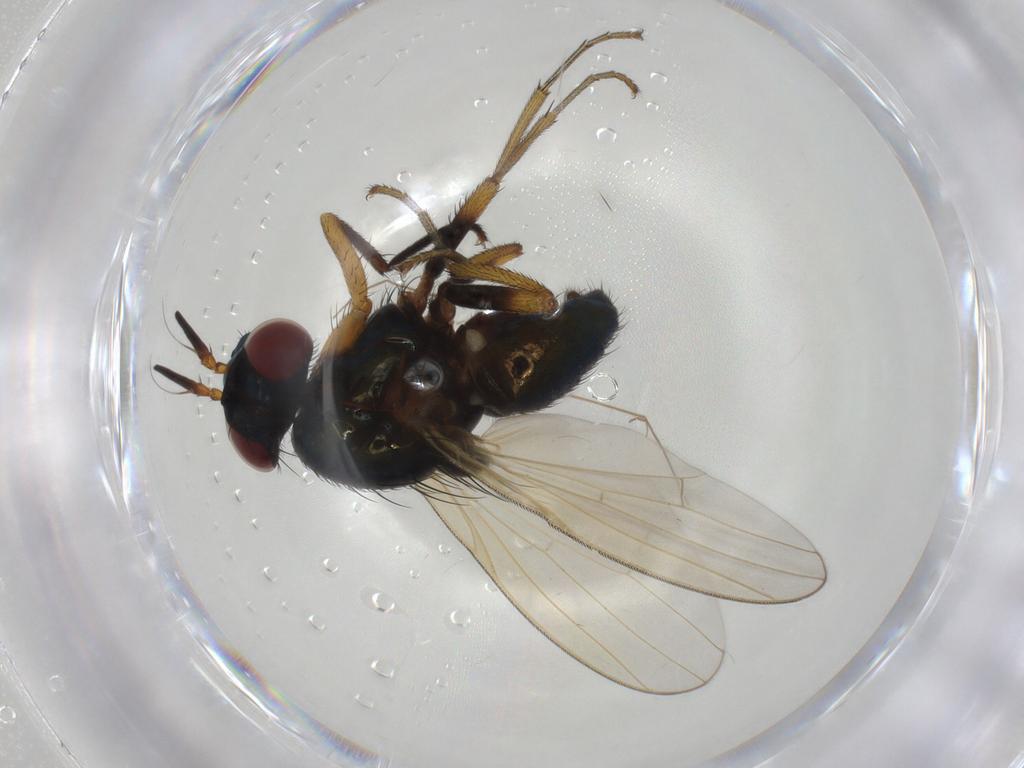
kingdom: Animalia
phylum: Arthropoda
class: Insecta
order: Diptera
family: Lauxaniidae
